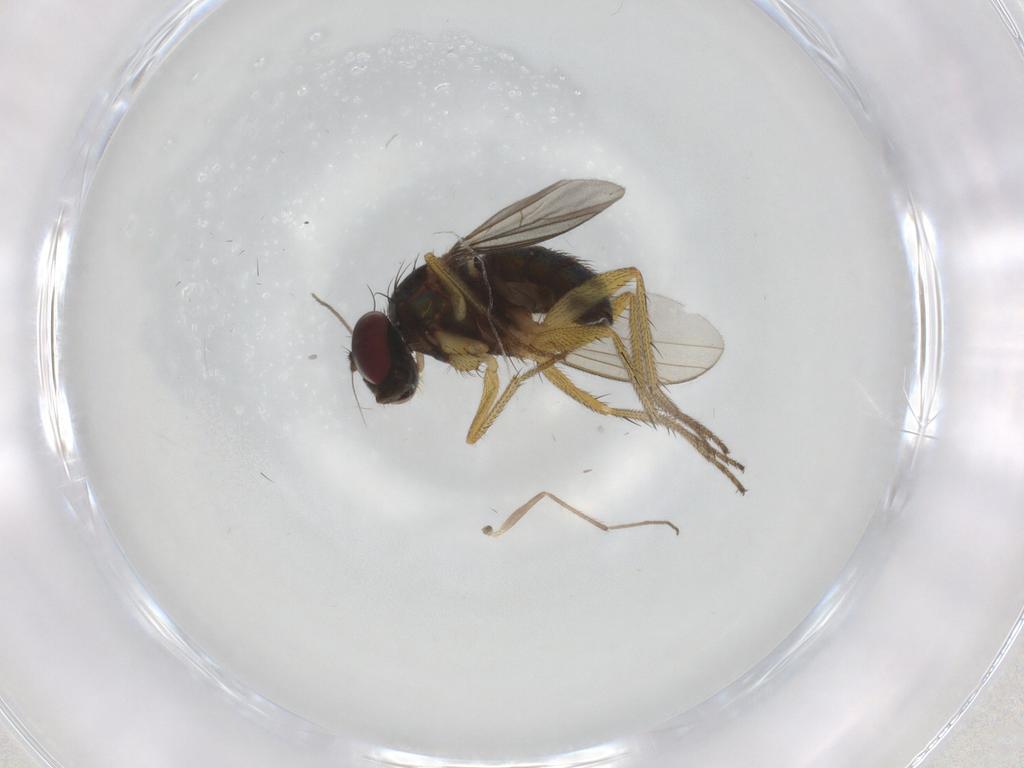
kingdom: Animalia
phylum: Arthropoda
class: Insecta
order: Diptera
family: Chironomidae
